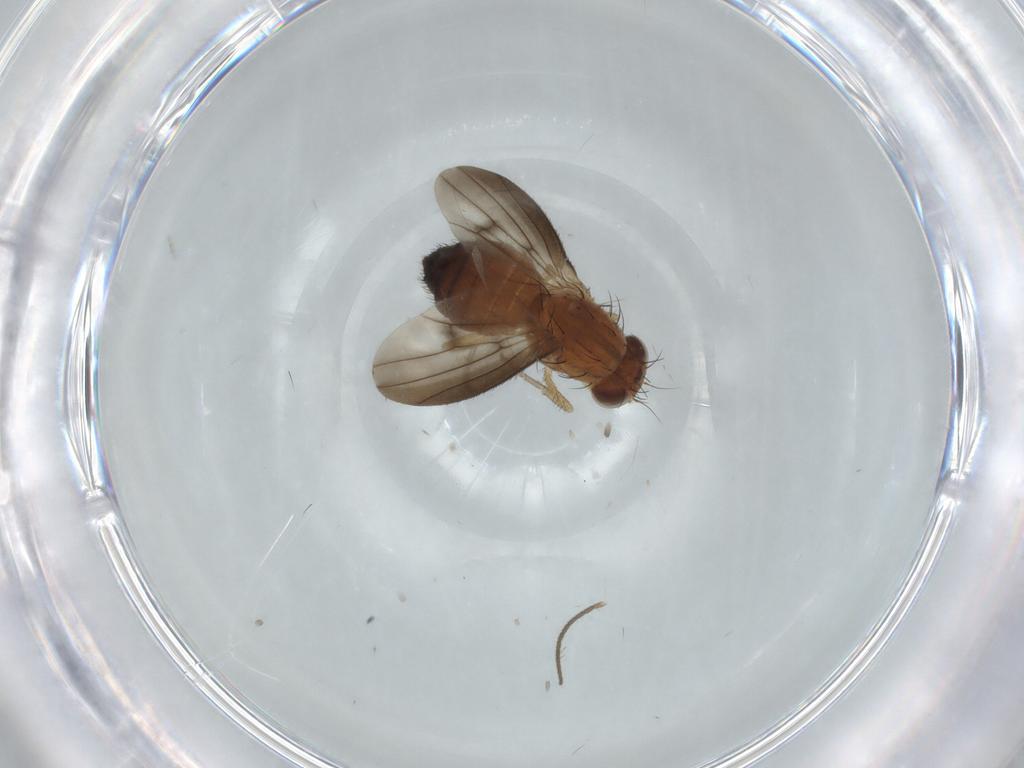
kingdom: Animalia
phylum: Arthropoda
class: Insecta
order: Diptera
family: Heleomyzidae
